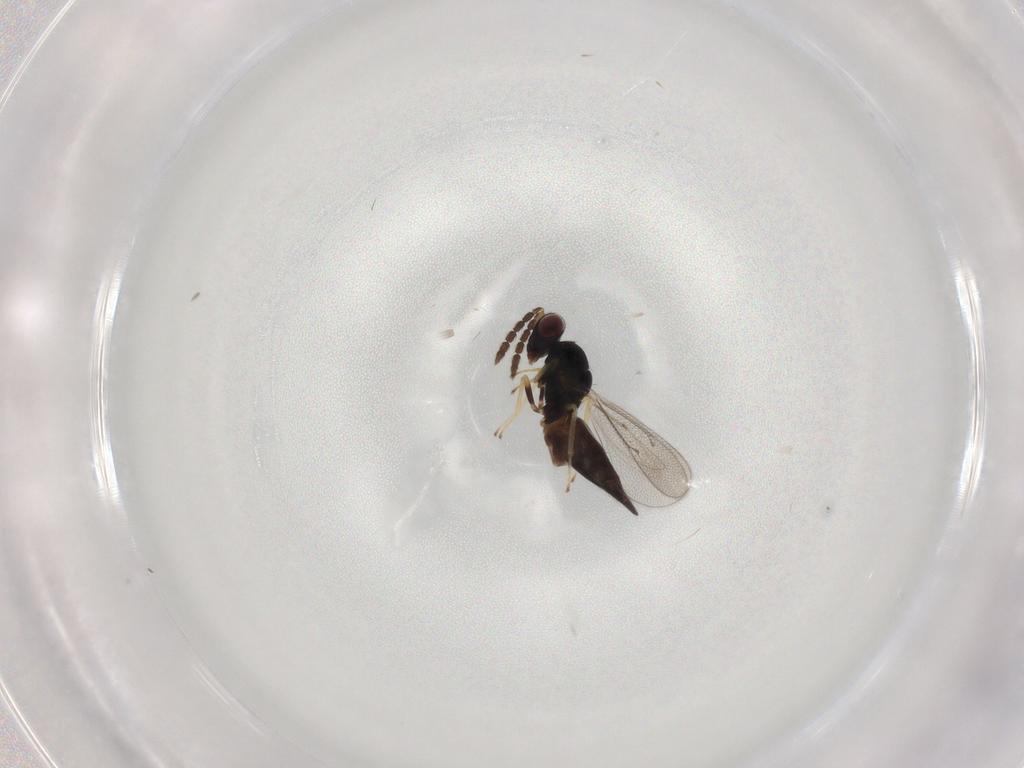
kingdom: Animalia
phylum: Arthropoda
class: Insecta
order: Hymenoptera
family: Eulophidae
